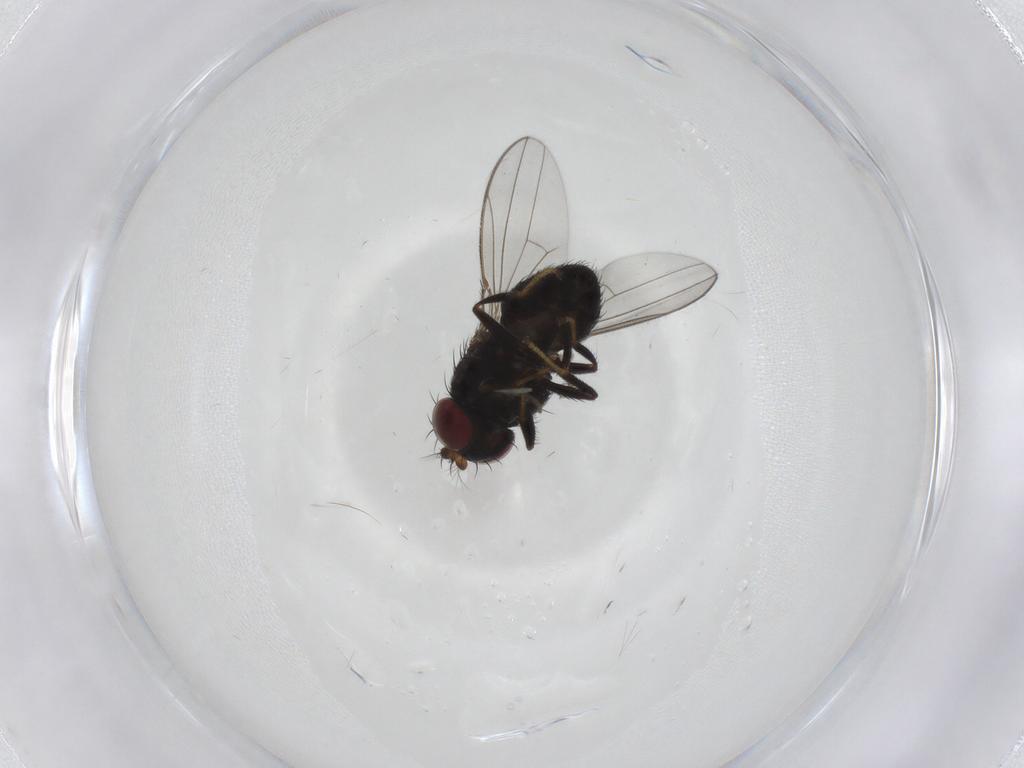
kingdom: Animalia
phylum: Arthropoda
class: Insecta
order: Diptera
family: Psychodidae
